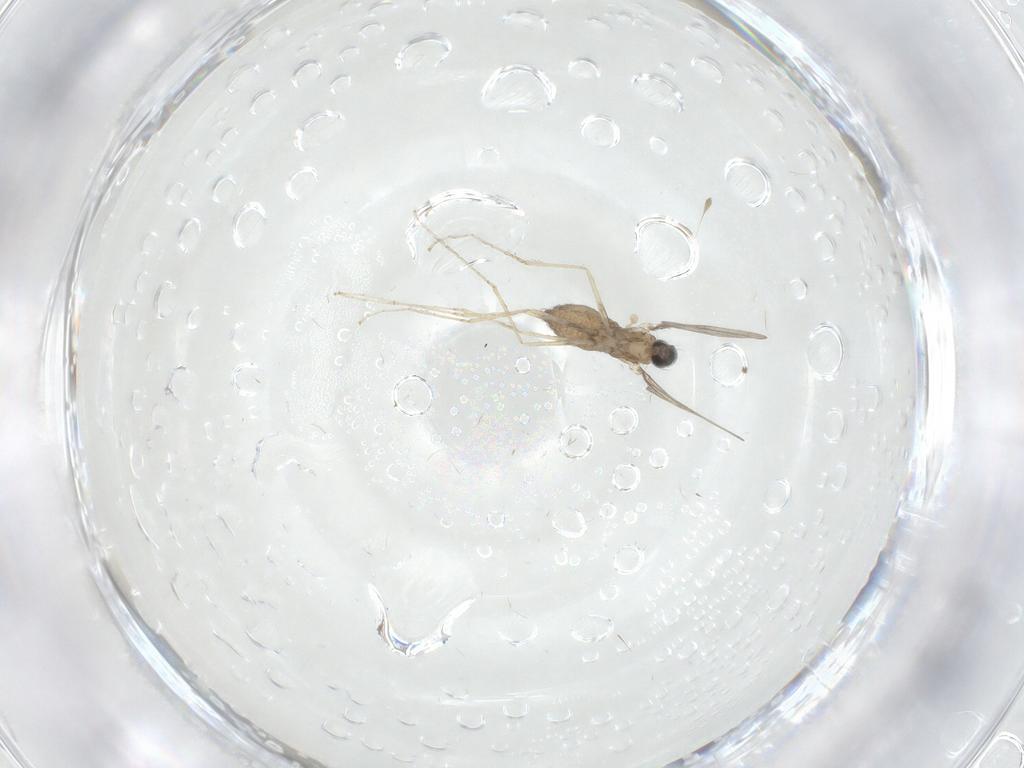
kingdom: Animalia
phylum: Arthropoda
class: Insecta
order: Diptera
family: Cecidomyiidae
